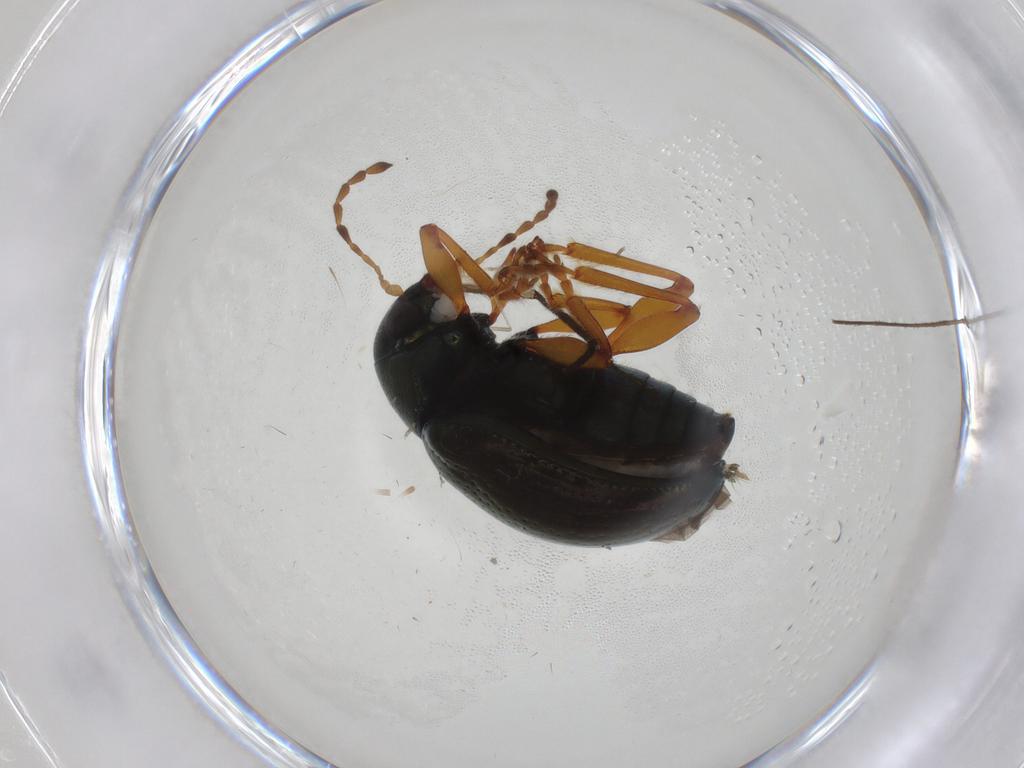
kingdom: Animalia
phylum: Arthropoda
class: Insecta
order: Coleoptera
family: Chrysomelidae
